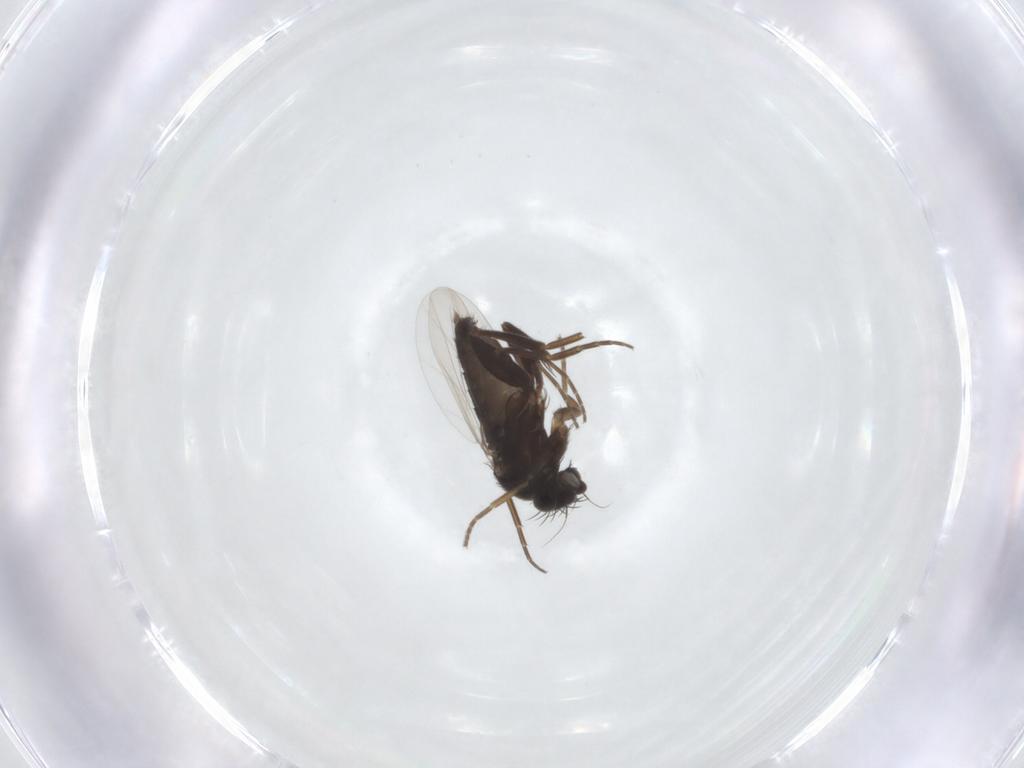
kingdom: Animalia
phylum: Arthropoda
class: Insecta
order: Diptera
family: Phoridae
